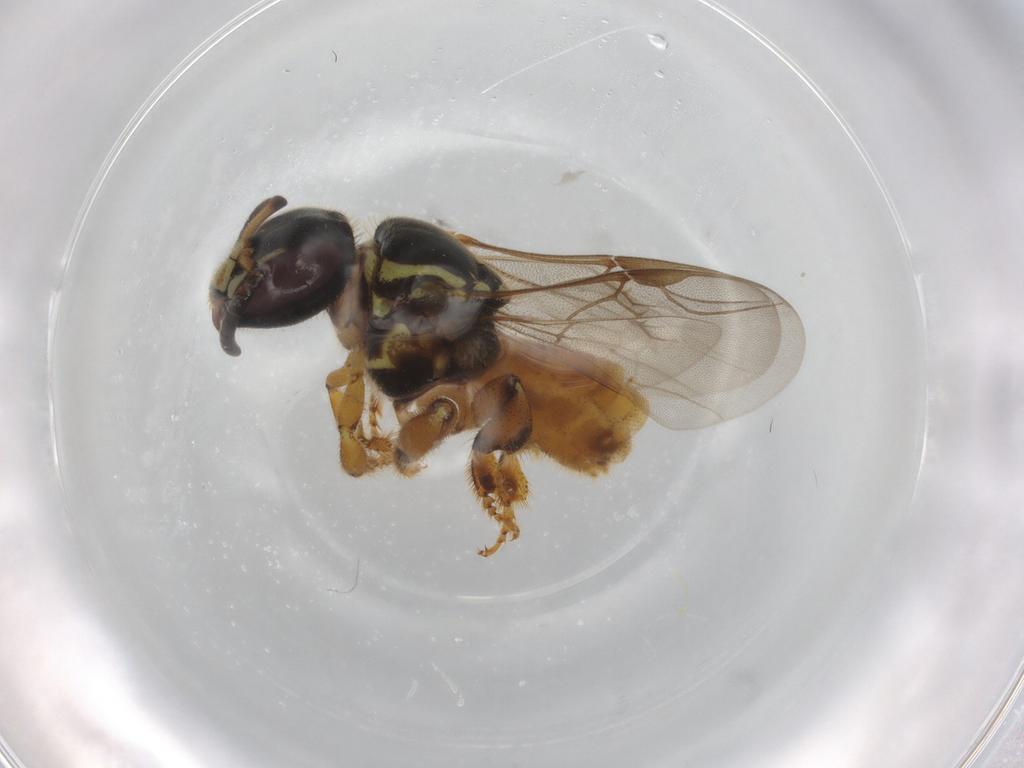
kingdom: Animalia
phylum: Arthropoda
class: Insecta
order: Hymenoptera
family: Apidae
